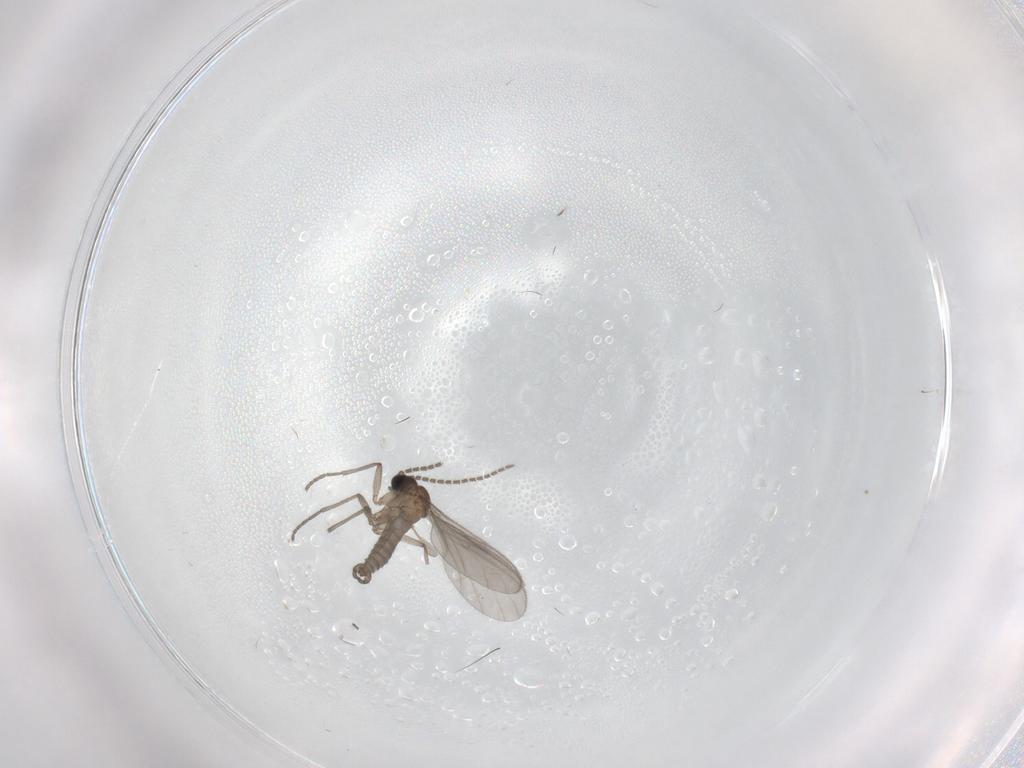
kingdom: Animalia
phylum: Arthropoda
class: Insecta
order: Diptera
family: Sciaridae
